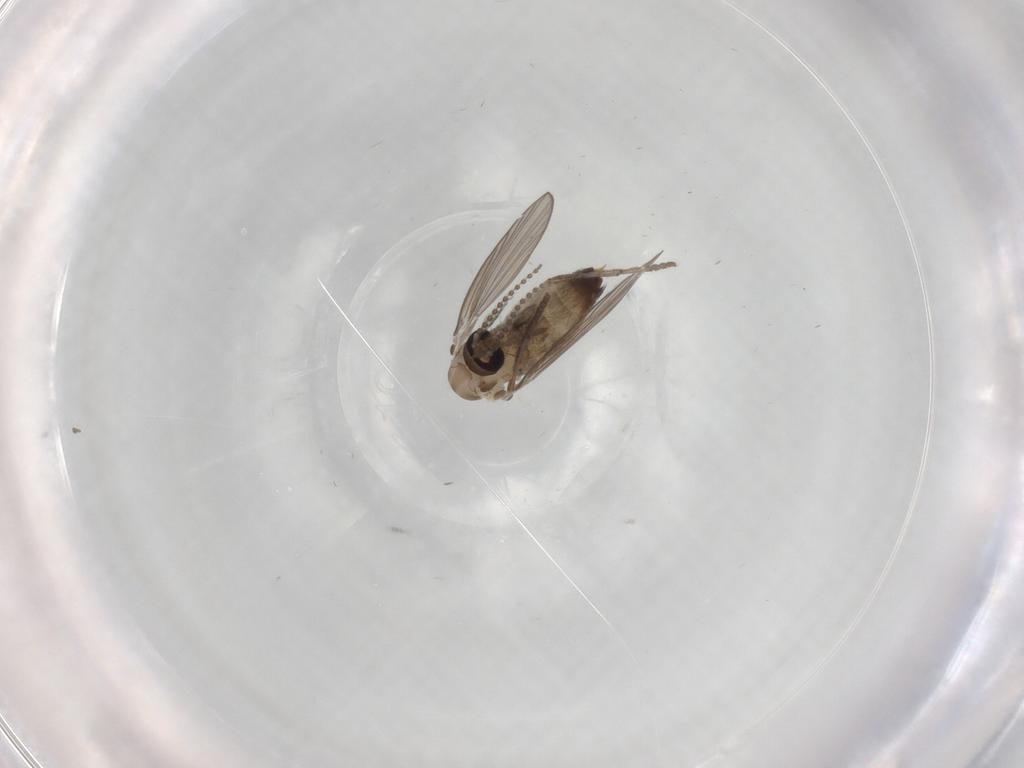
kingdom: Animalia
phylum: Arthropoda
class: Insecta
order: Diptera
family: Psychodidae
